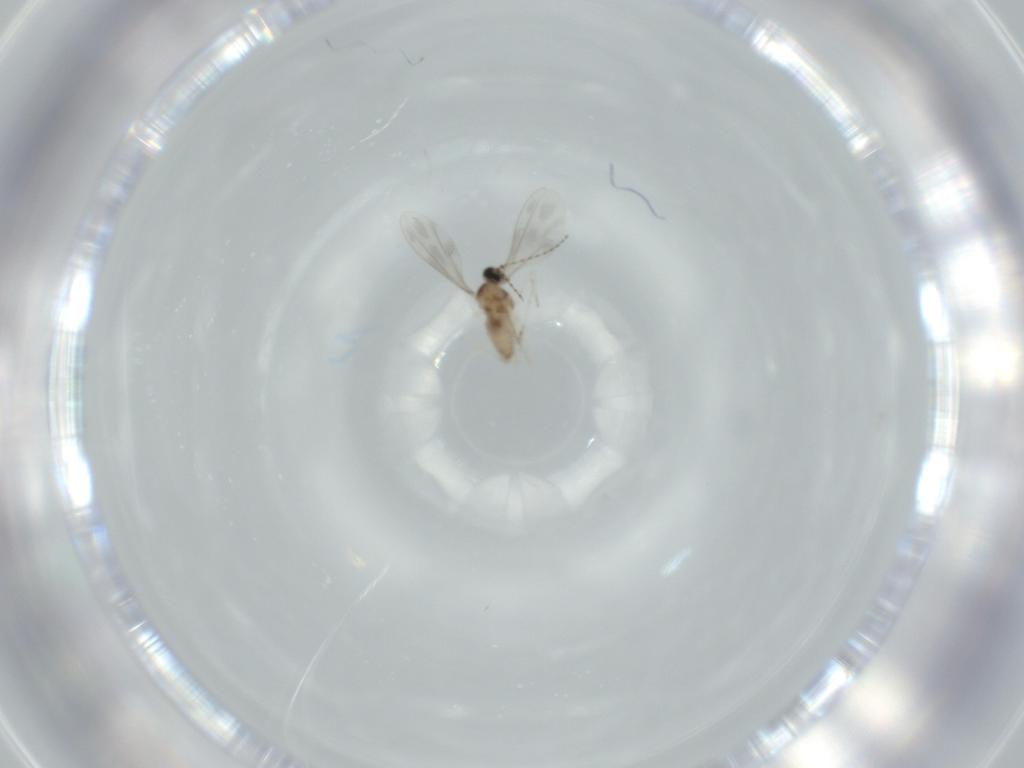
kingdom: Animalia
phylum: Arthropoda
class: Insecta
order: Diptera
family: Cecidomyiidae
